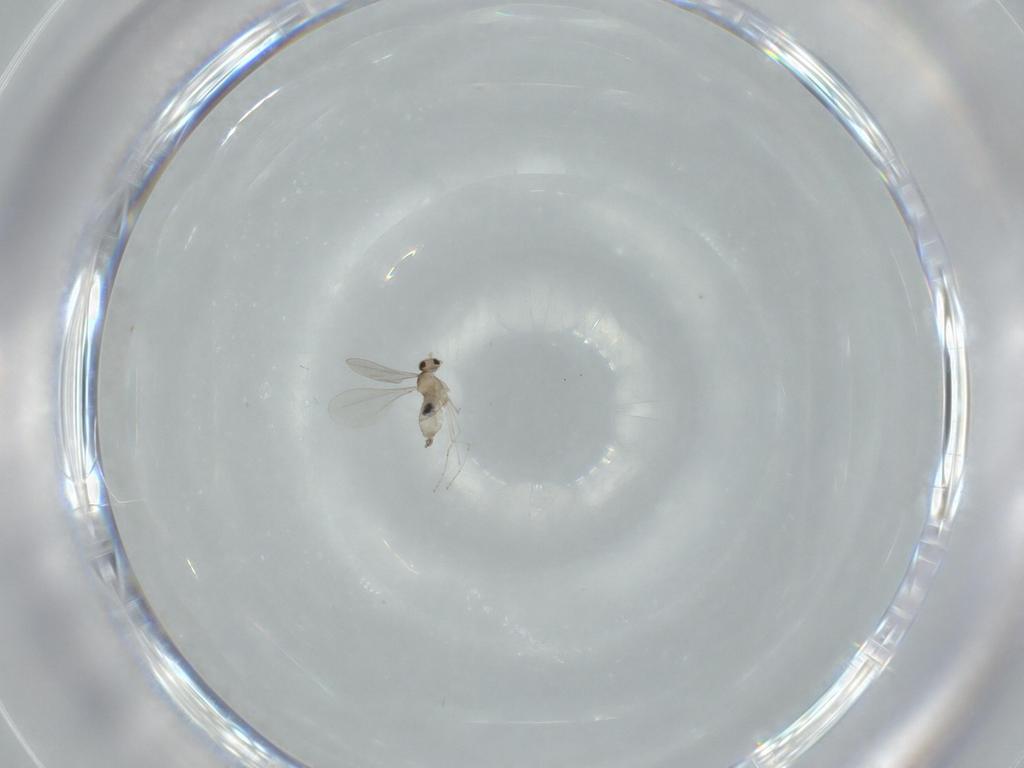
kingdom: Animalia
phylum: Arthropoda
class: Insecta
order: Diptera
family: Cecidomyiidae
